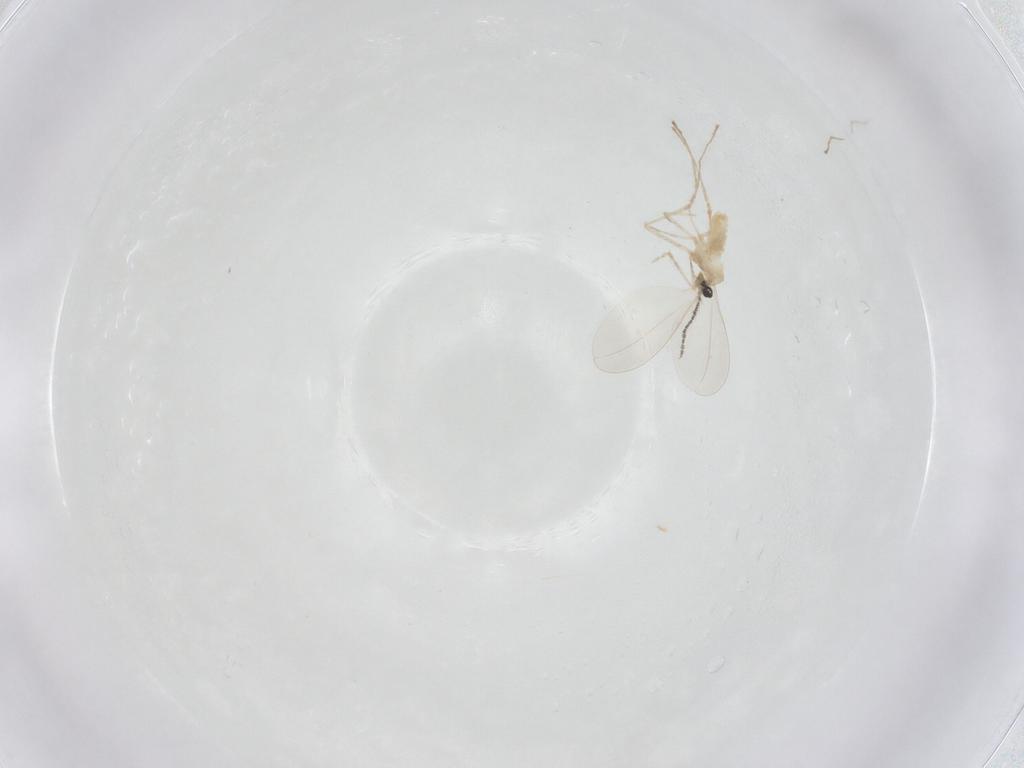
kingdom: Animalia
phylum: Arthropoda
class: Insecta
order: Diptera
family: Cecidomyiidae
